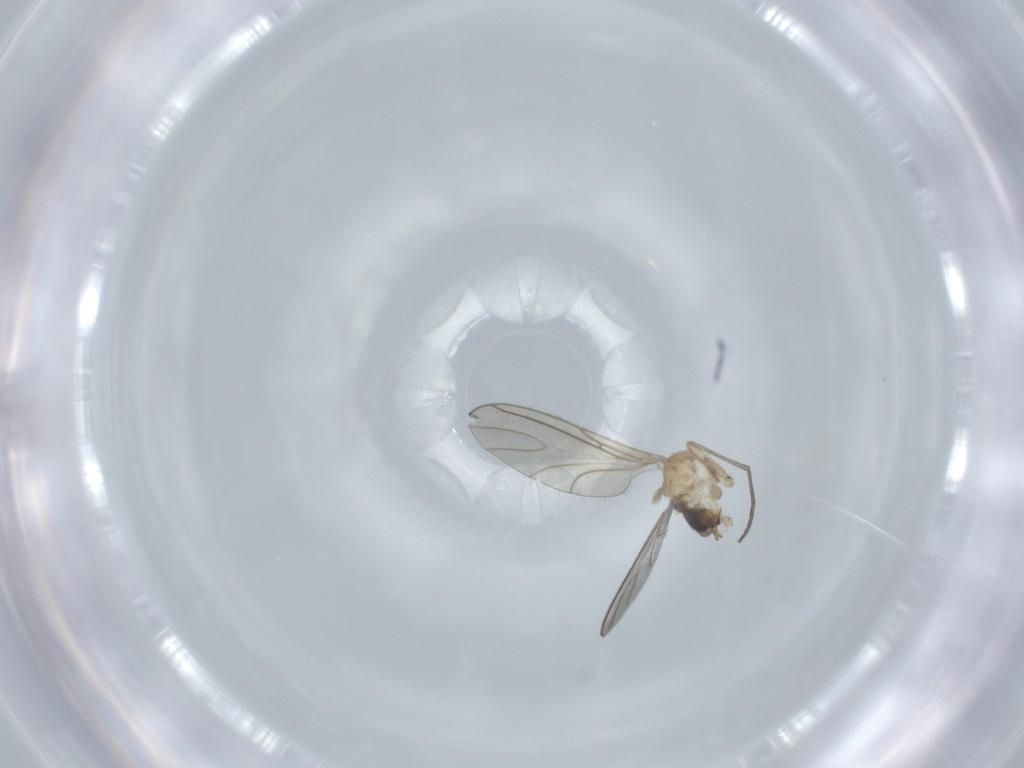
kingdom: Animalia
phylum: Arthropoda
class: Insecta
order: Diptera
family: Sciaridae
